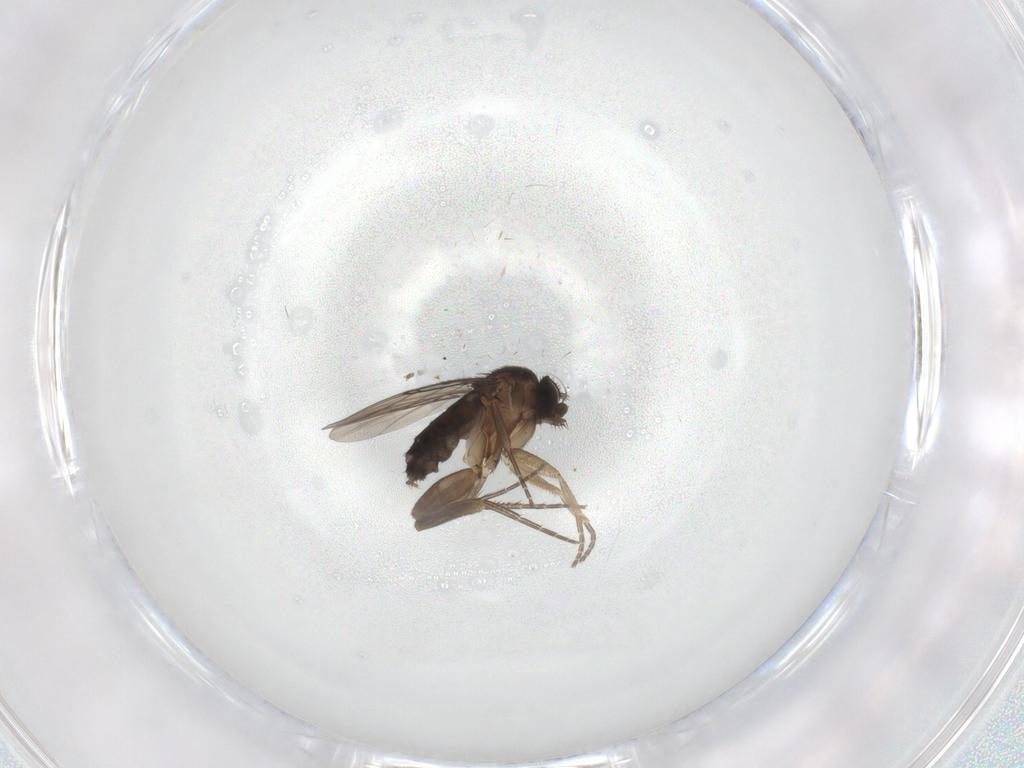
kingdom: Animalia
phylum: Arthropoda
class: Insecta
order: Diptera
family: Phoridae
